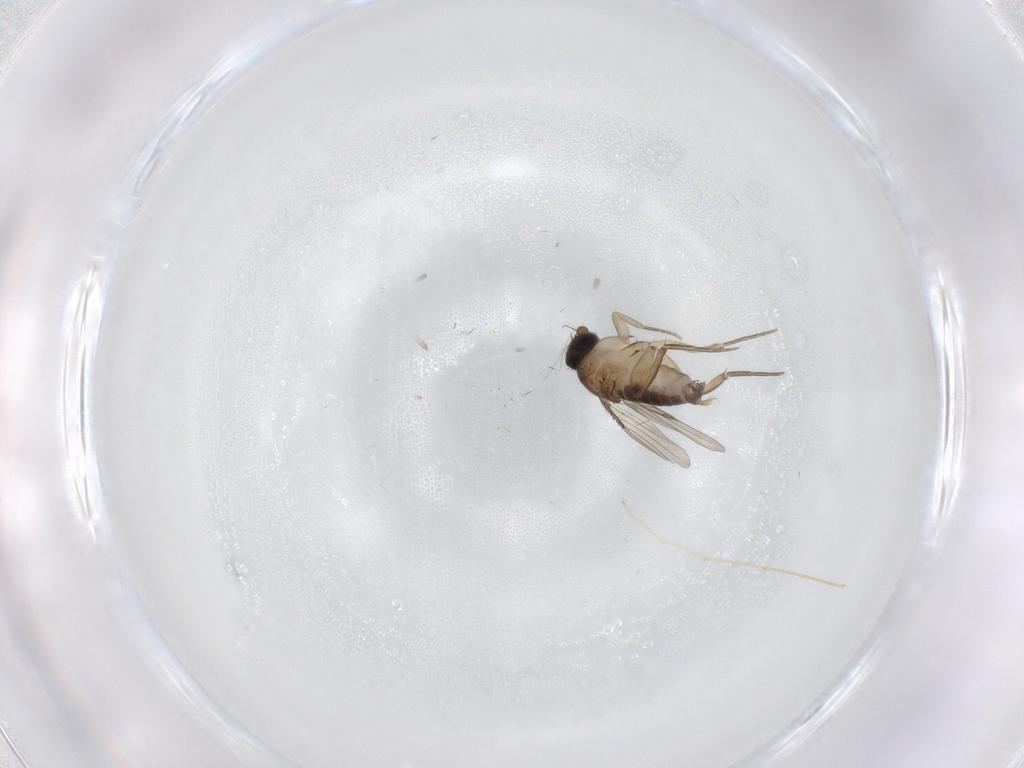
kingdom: Animalia
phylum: Arthropoda
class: Insecta
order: Diptera
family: Phoridae
